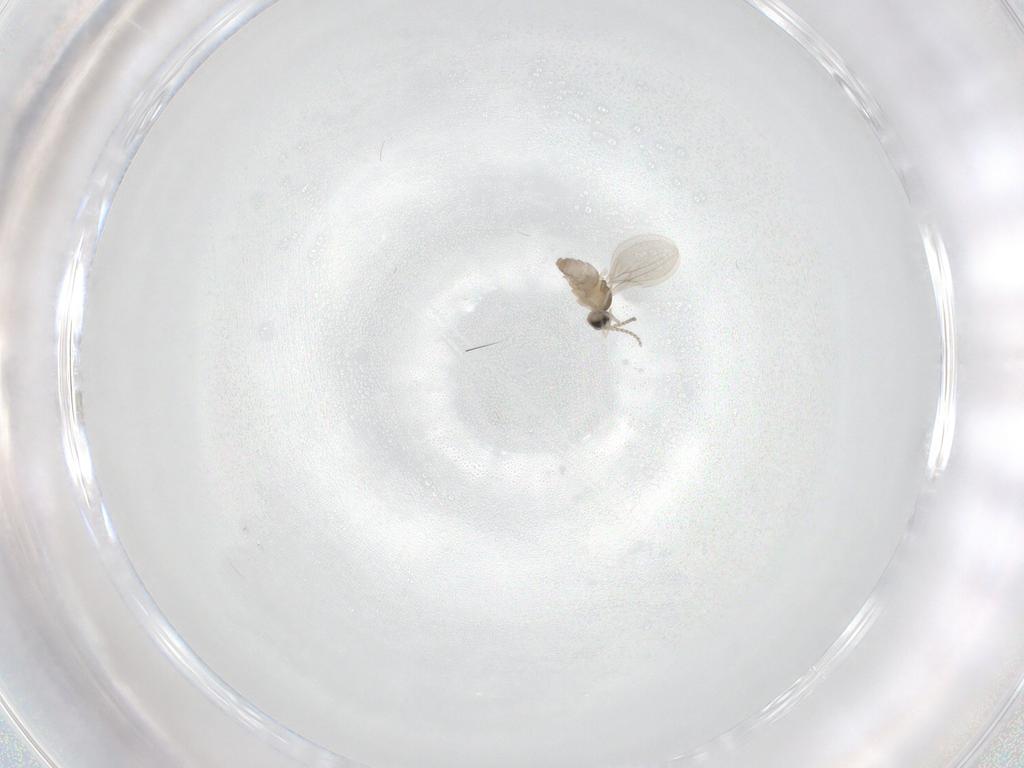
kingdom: Animalia
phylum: Arthropoda
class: Insecta
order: Diptera
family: Cecidomyiidae
